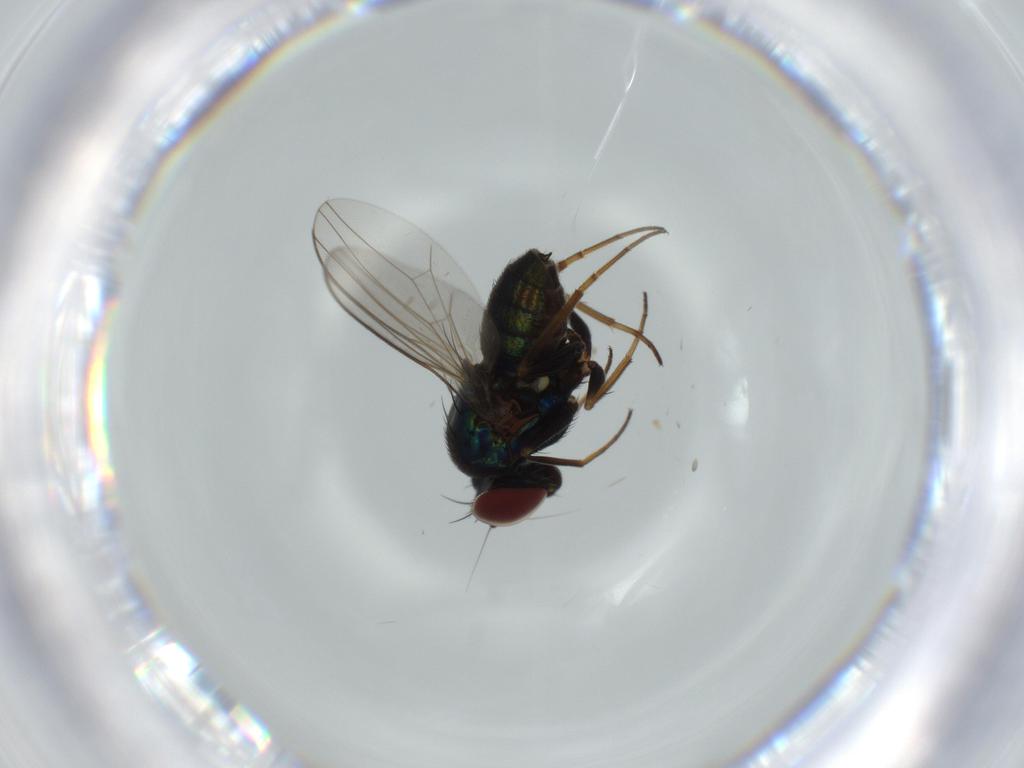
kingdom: Animalia
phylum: Arthropoda
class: Insecta
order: Diptera
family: Dolichopodidae
